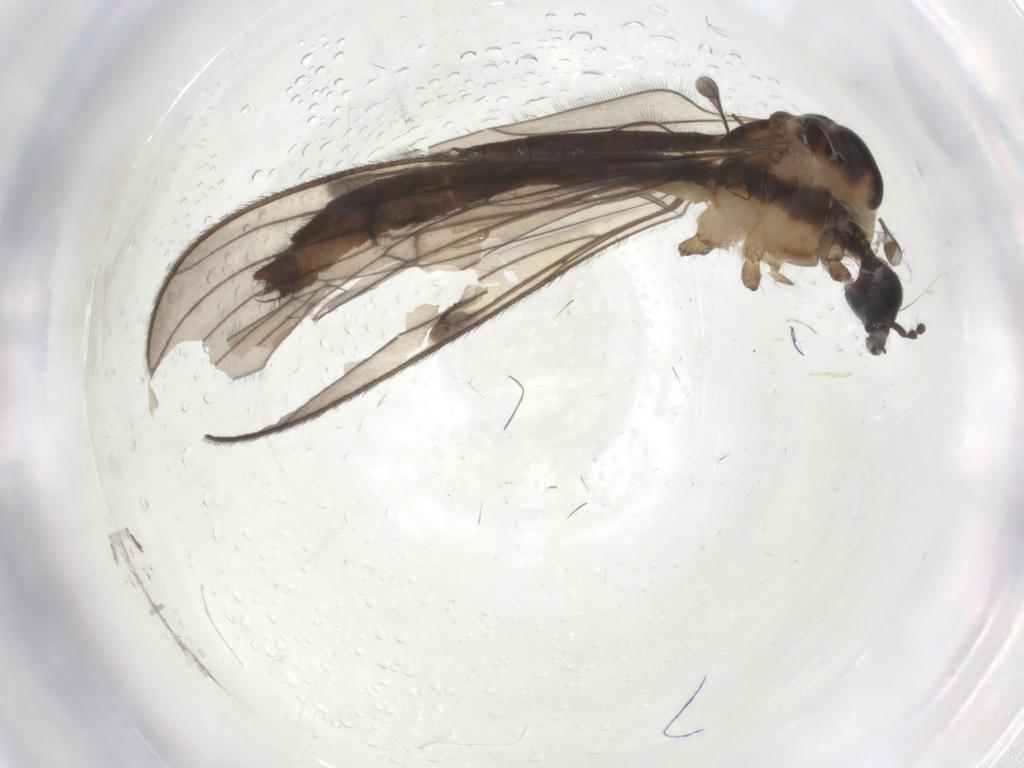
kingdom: Animalia
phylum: Arthropoda
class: Insecta
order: Diptera
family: Limoniidae
